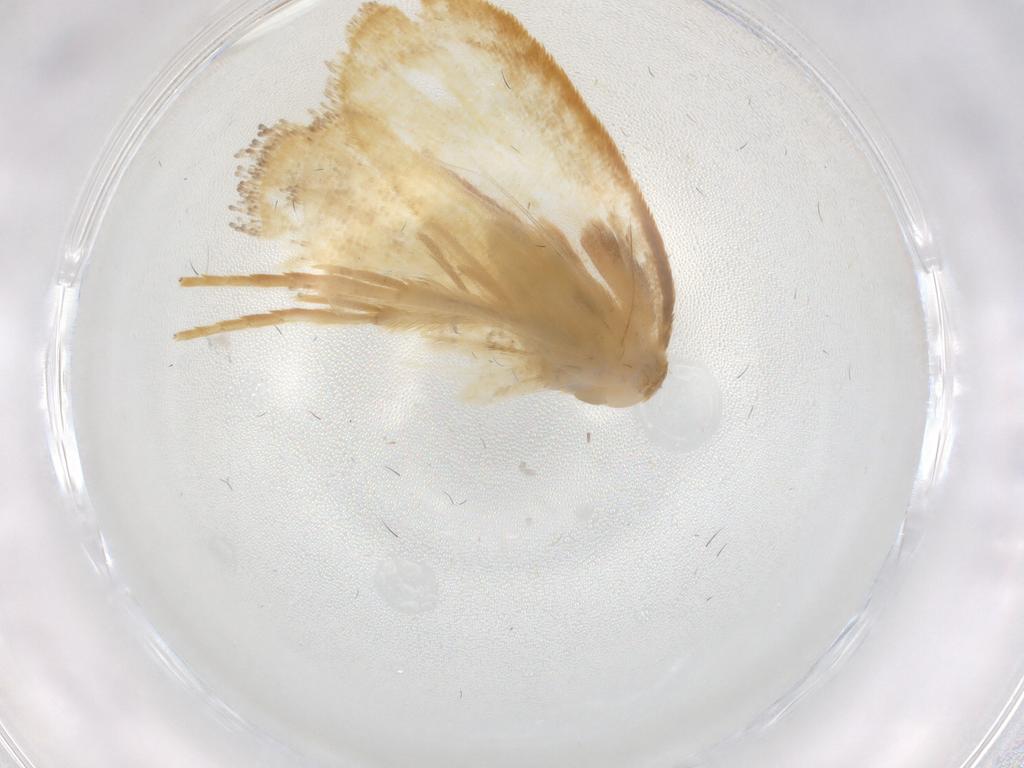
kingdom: Animalia
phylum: Arthropoda
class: Insecta
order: Lepidoptera
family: Psychidae
